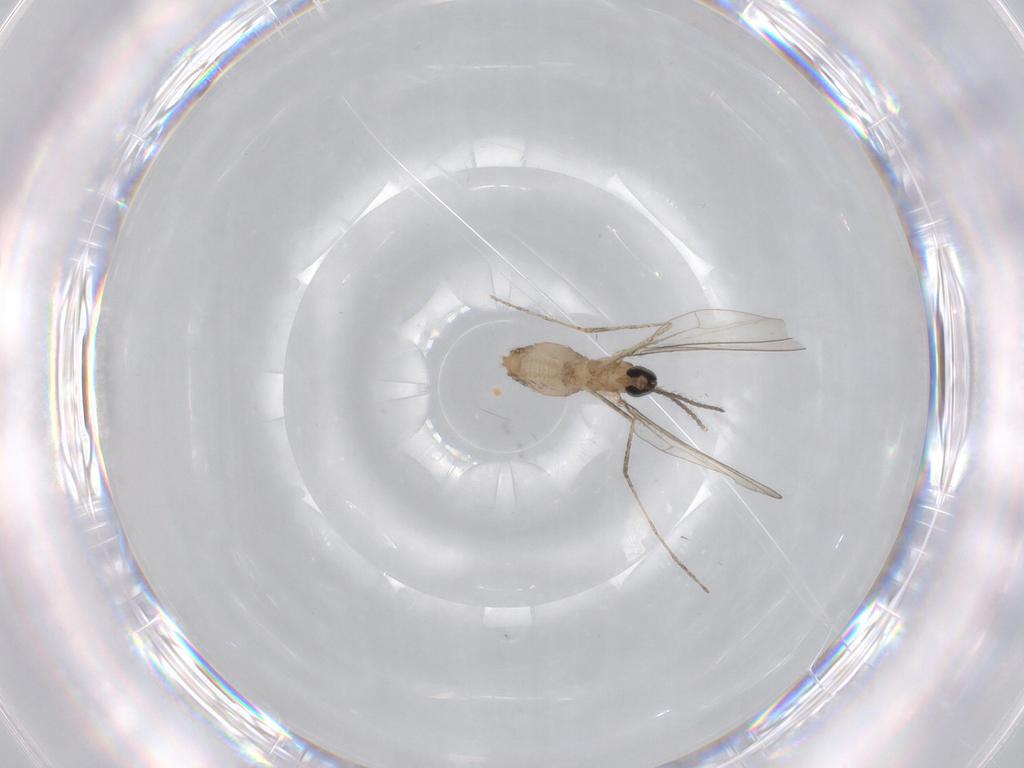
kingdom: Animalia
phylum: Arthropoda
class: Insecta
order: Diptera
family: Cecidomyiidae
